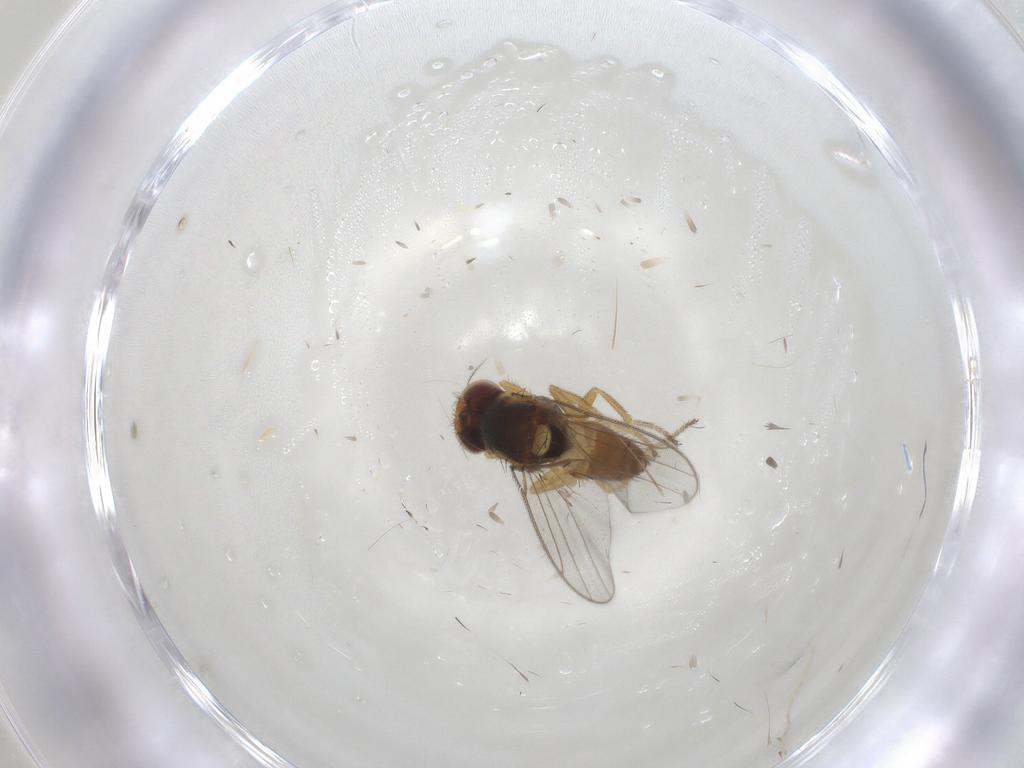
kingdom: Animalia
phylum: Arthropoda
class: Insecta
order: Diptera
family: Chloropidae
